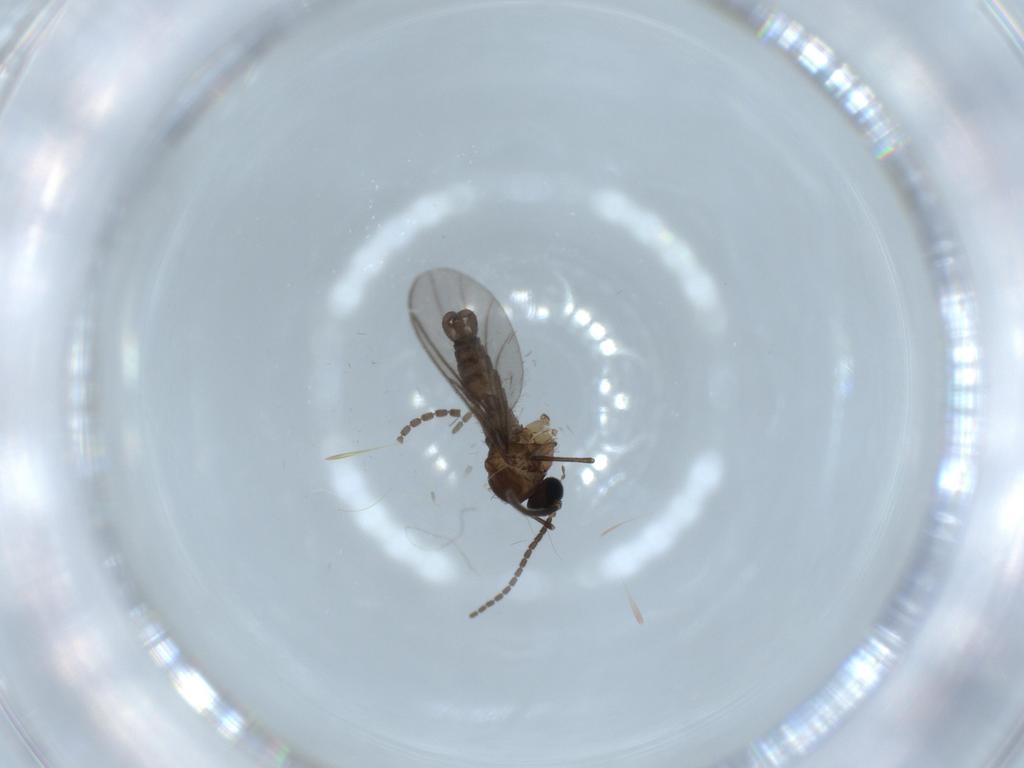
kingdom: Animalia
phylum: Arthropoda
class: Insecta
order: Diptera
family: Sciaridae
